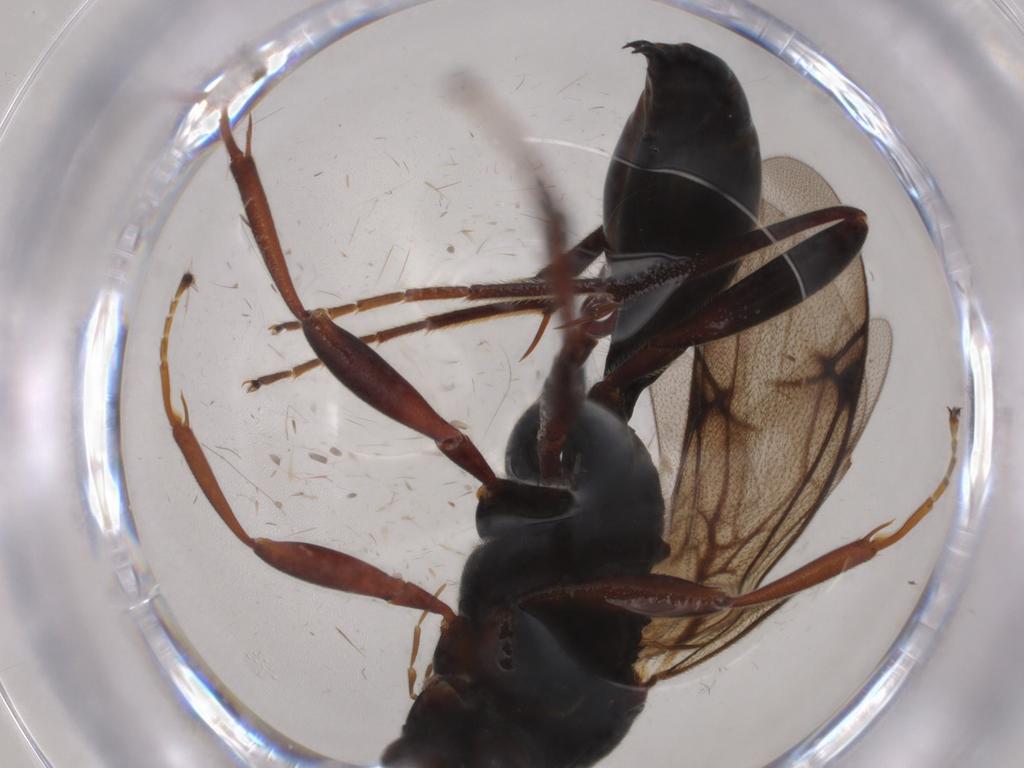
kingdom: Animalia
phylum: Arthropoda
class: Insecta
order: Hymenoptera
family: Proctotrupidae
